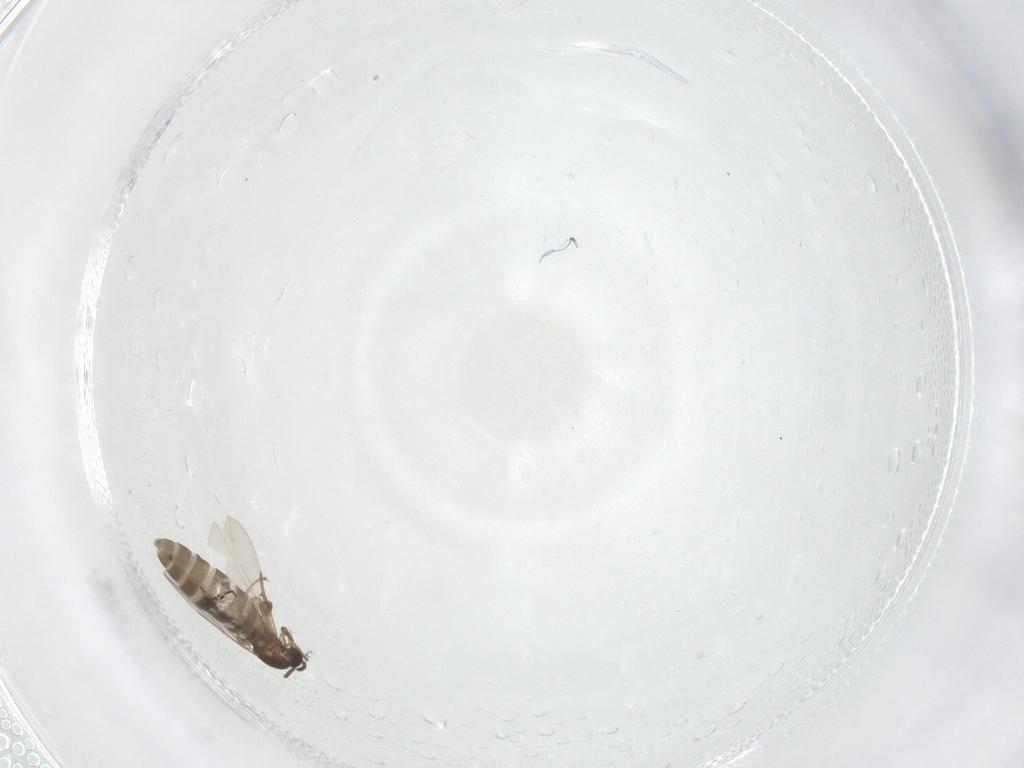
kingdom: Animalia
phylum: Arthropoda
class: Insecta
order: Diptera
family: Scatopsidae
